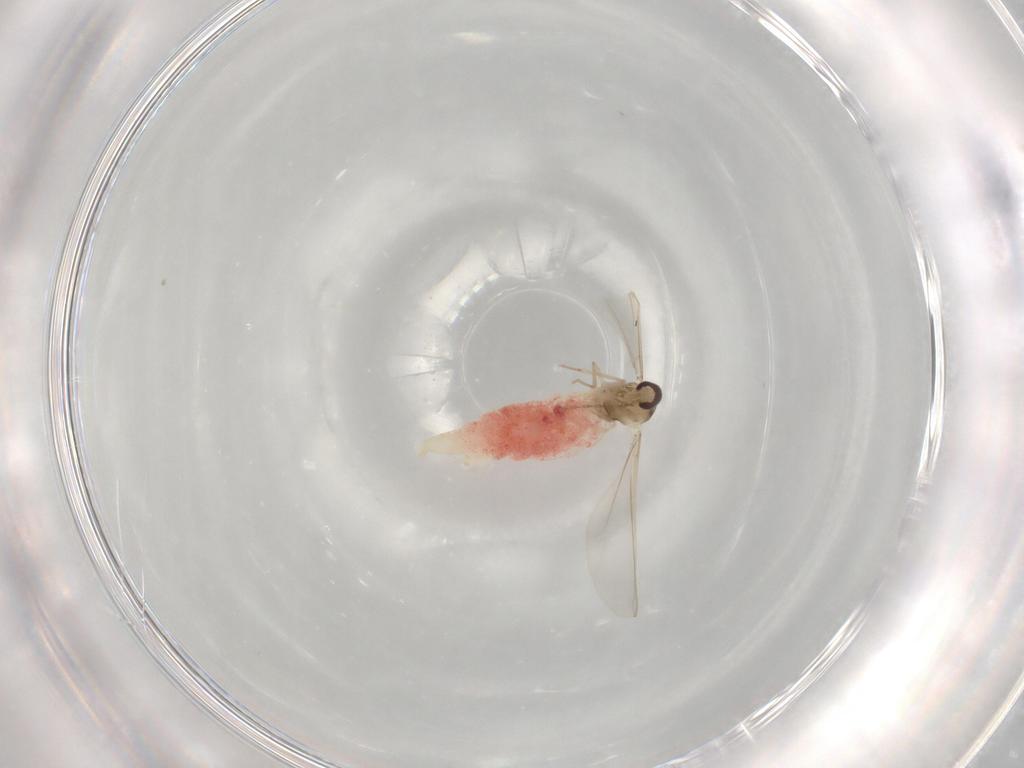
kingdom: Animalia
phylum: Arthropoda
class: Insecta
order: Diptera
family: Cecidomyiidae
